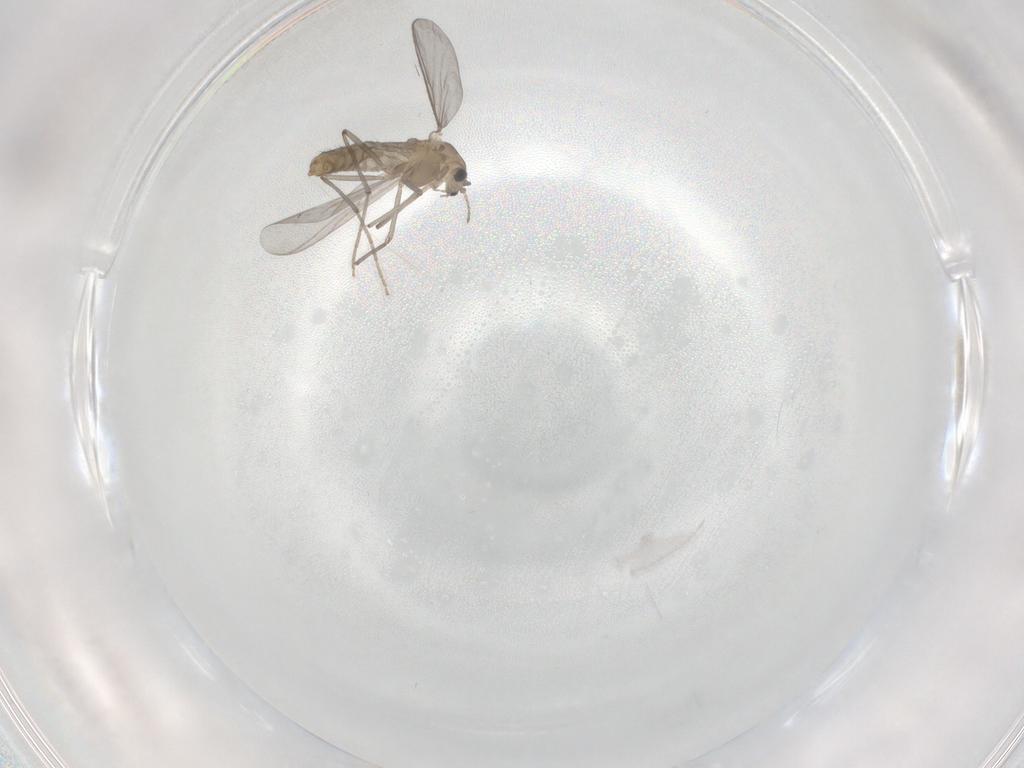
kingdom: Animalia
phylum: Arthropoda
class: Insecta
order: Diptera
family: Chironomidae
